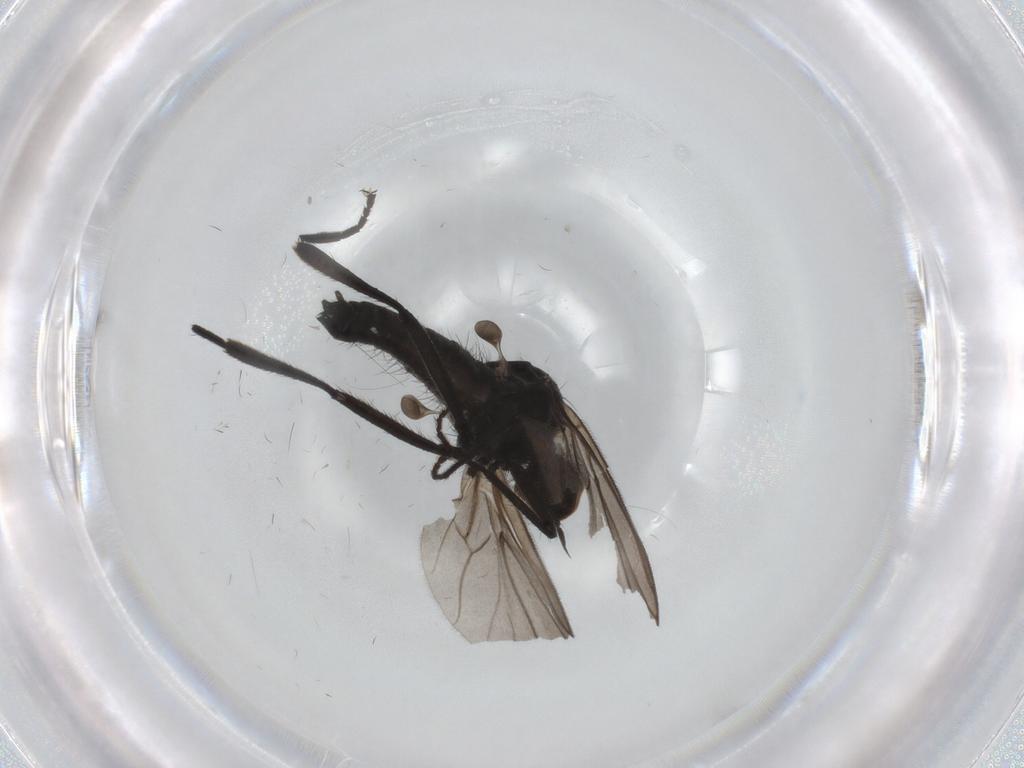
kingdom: Animalia
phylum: Arthropoda
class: Insecta
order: Diptera
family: Hybotidae
